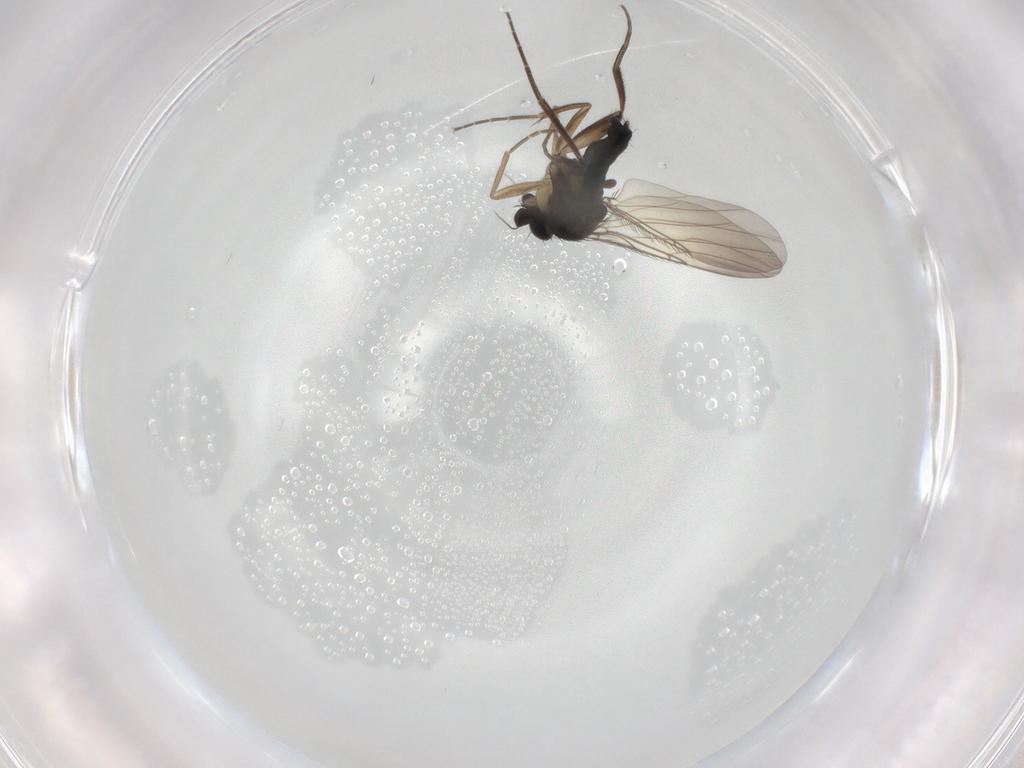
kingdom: Animalia
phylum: Arthropoda
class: Insecta
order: Diptera
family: Phoridae
